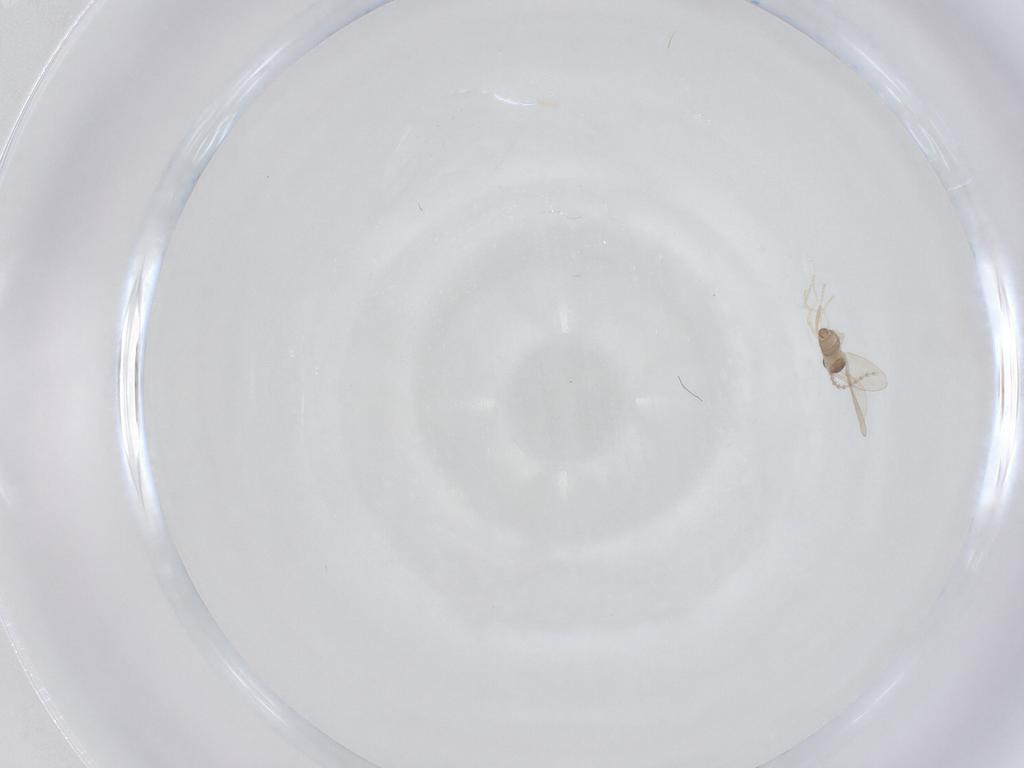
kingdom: Animalia
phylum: Arthropoda
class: Insecta
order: Diptera
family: Cecidomyiidae
